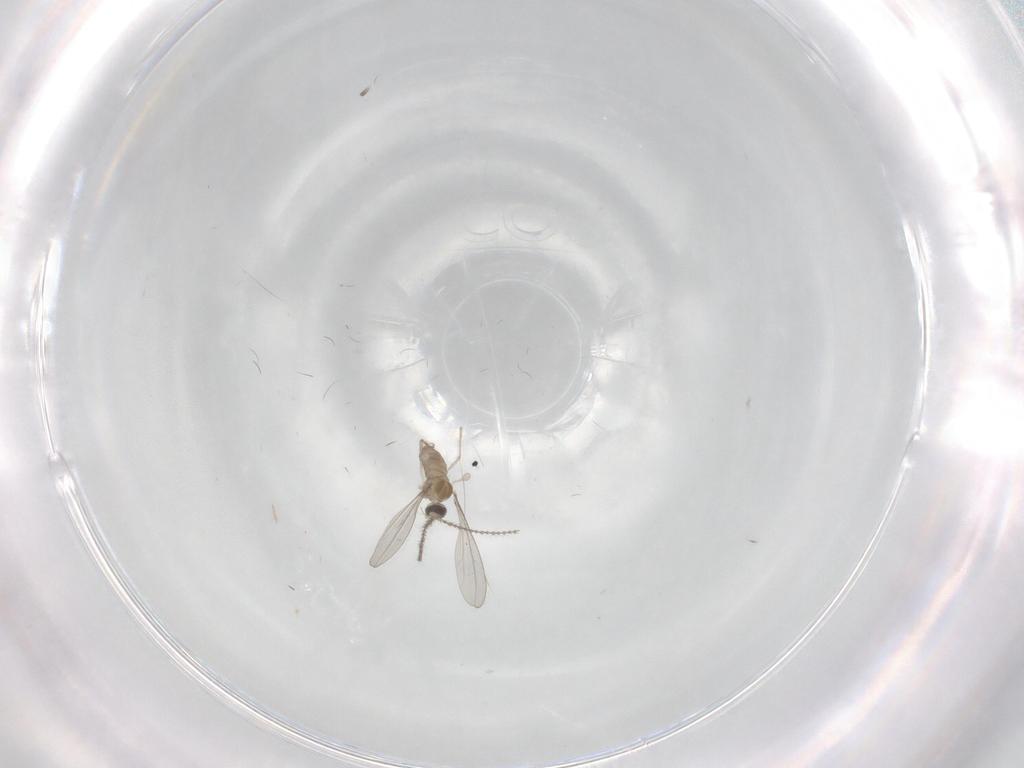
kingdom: Animalia
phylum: Arthropoda
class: Insecta
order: Diptera
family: Cecidomyiidae
